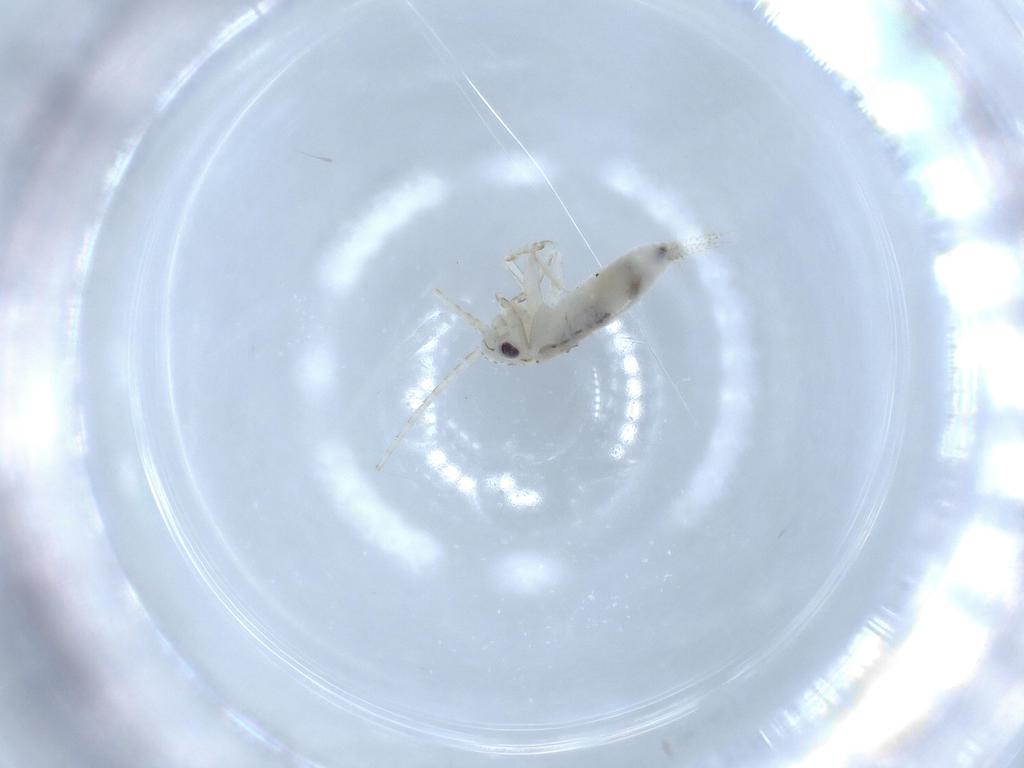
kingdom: Animalia
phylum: Arthropoda
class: Insecta
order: Orthoptera
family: Trigonidiidae
